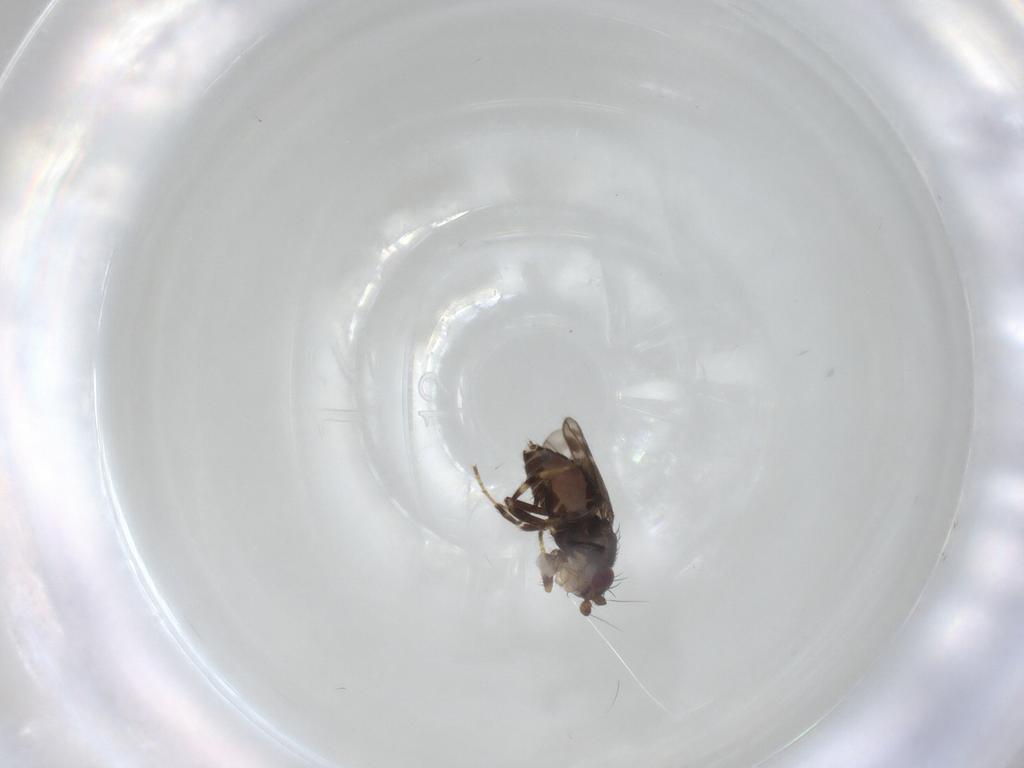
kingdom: Animalia
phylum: Arthropoda
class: Insecta
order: Diptera
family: Sphaeroceridae
